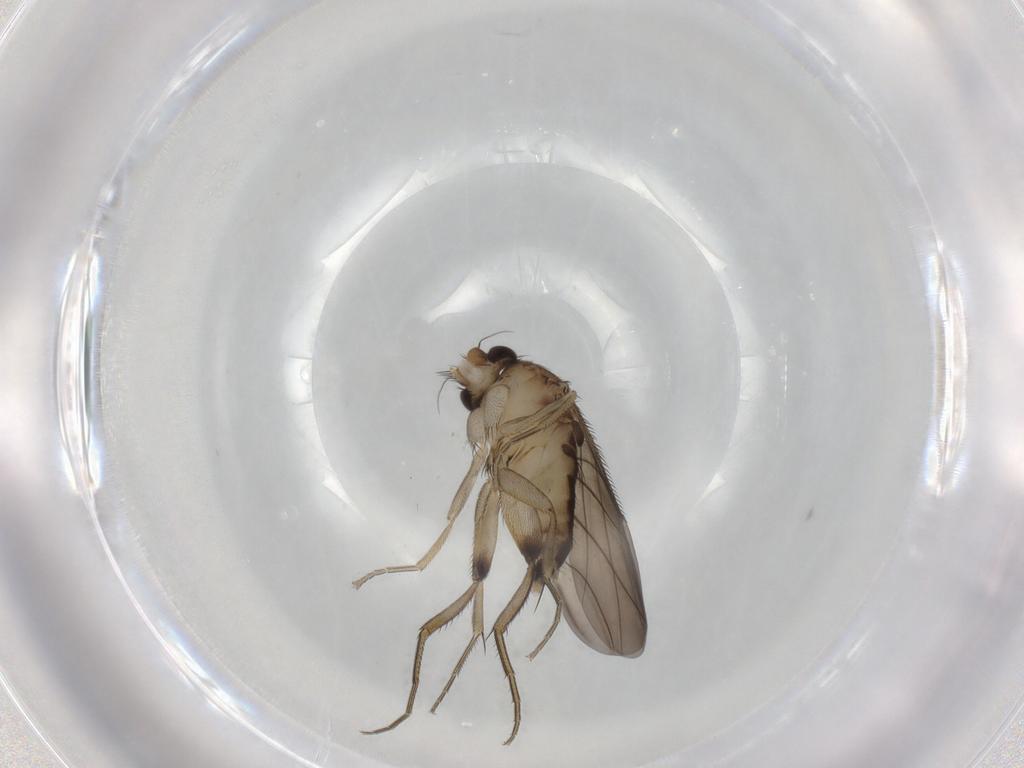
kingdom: Animalia
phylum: Arthropoda
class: Insecta
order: Diptera
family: Phoridae
